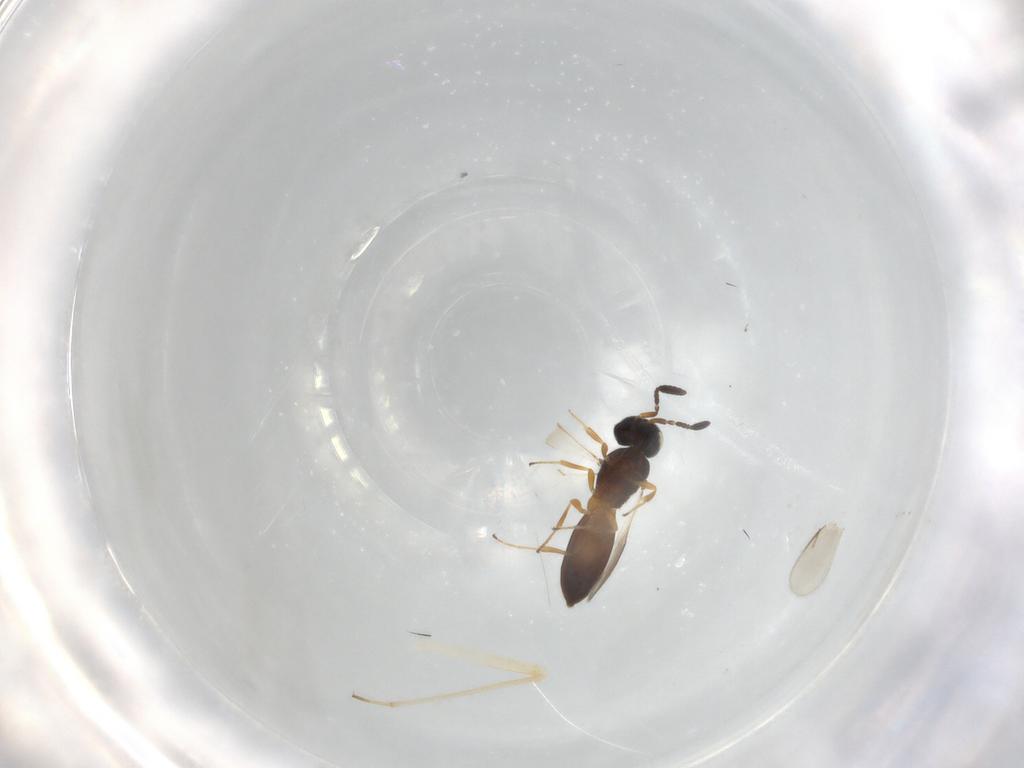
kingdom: Animalia
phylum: Arthropoda
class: Insecta
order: Hymenoptera
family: Scelionidae
